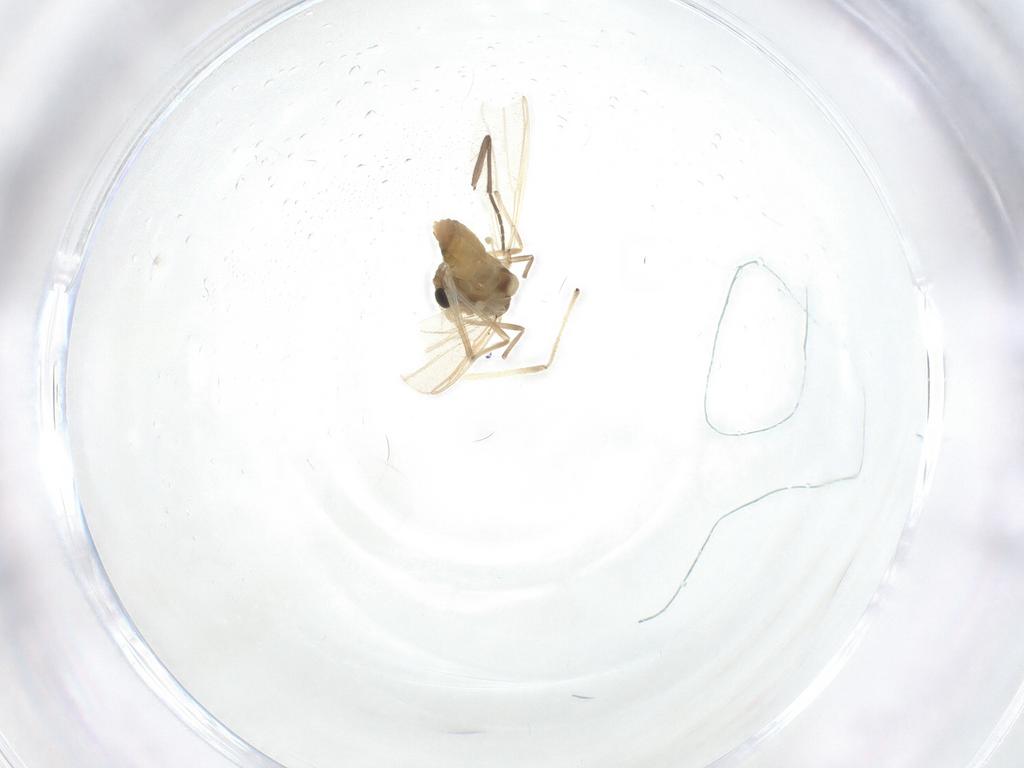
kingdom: Animalia
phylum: Arthropoda
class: Insecta
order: Diptera
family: Chironomidae
